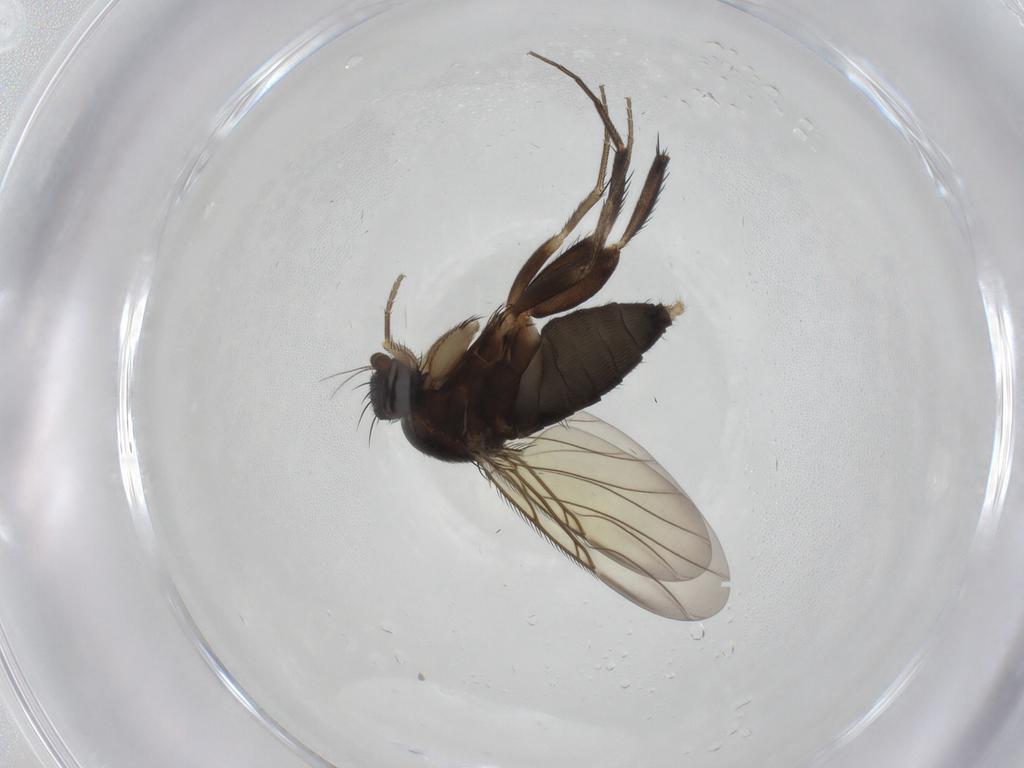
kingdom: Animalia
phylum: Arthropoda
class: Insecta
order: Diptera
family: Phoridae
